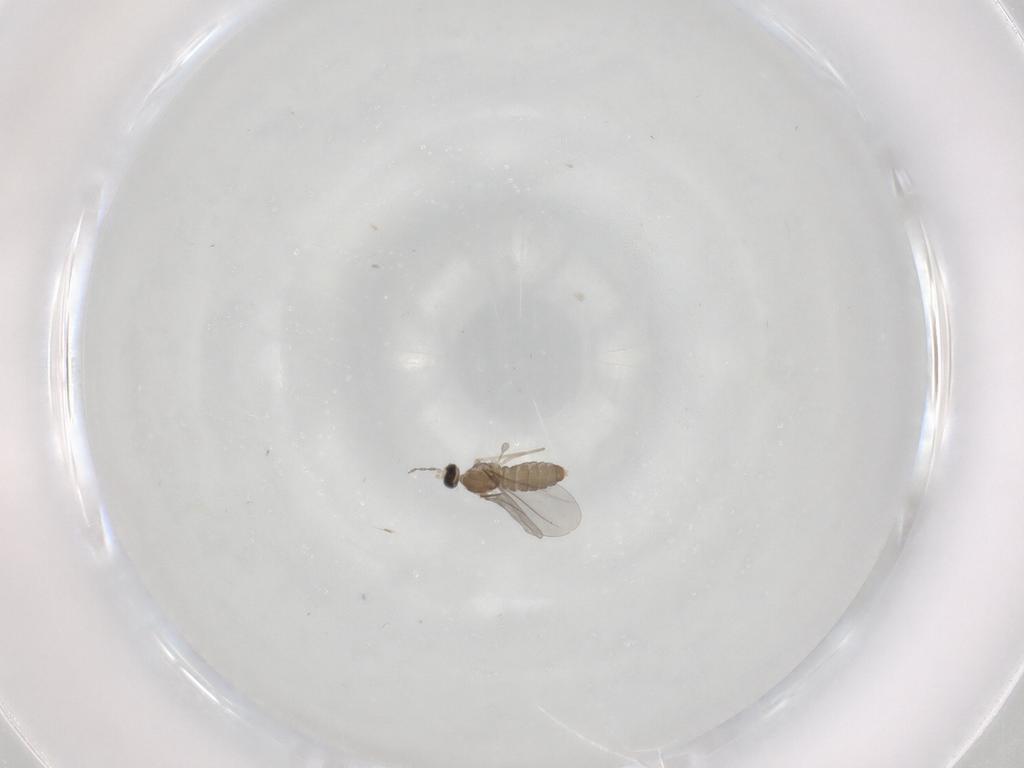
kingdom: Animalia
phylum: Arthropoda
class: Insecta
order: Diptera
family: Cecidomyiidae
